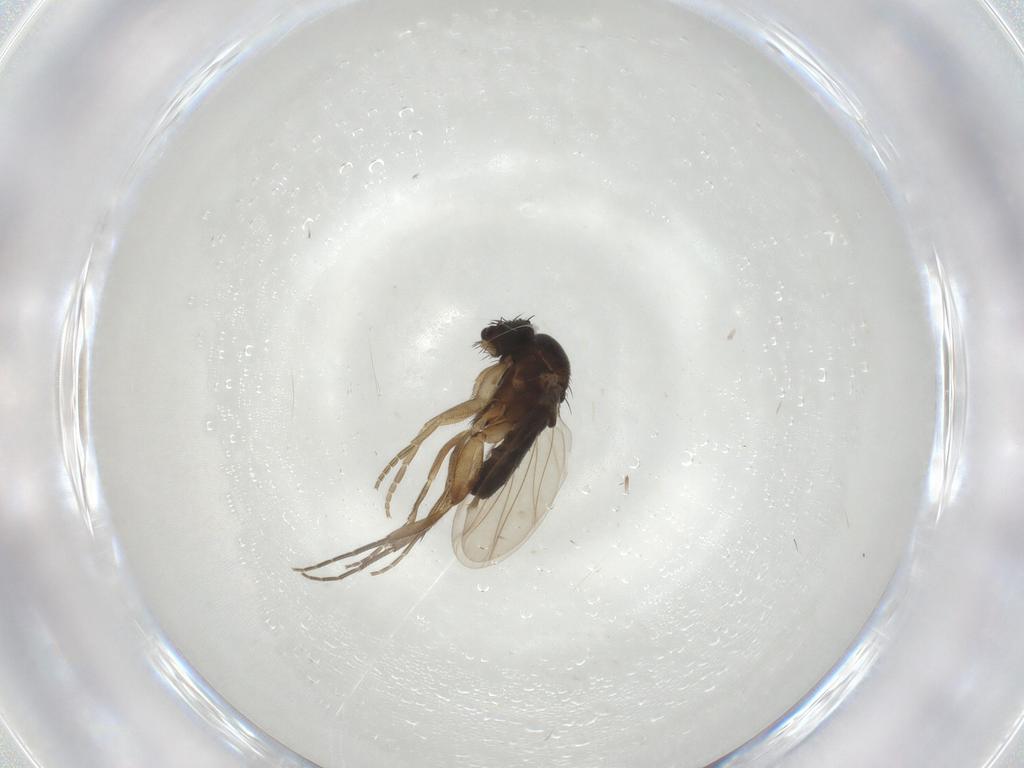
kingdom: Animalia
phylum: Arthropoda
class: Insecta
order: Diptera
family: Phoridae
